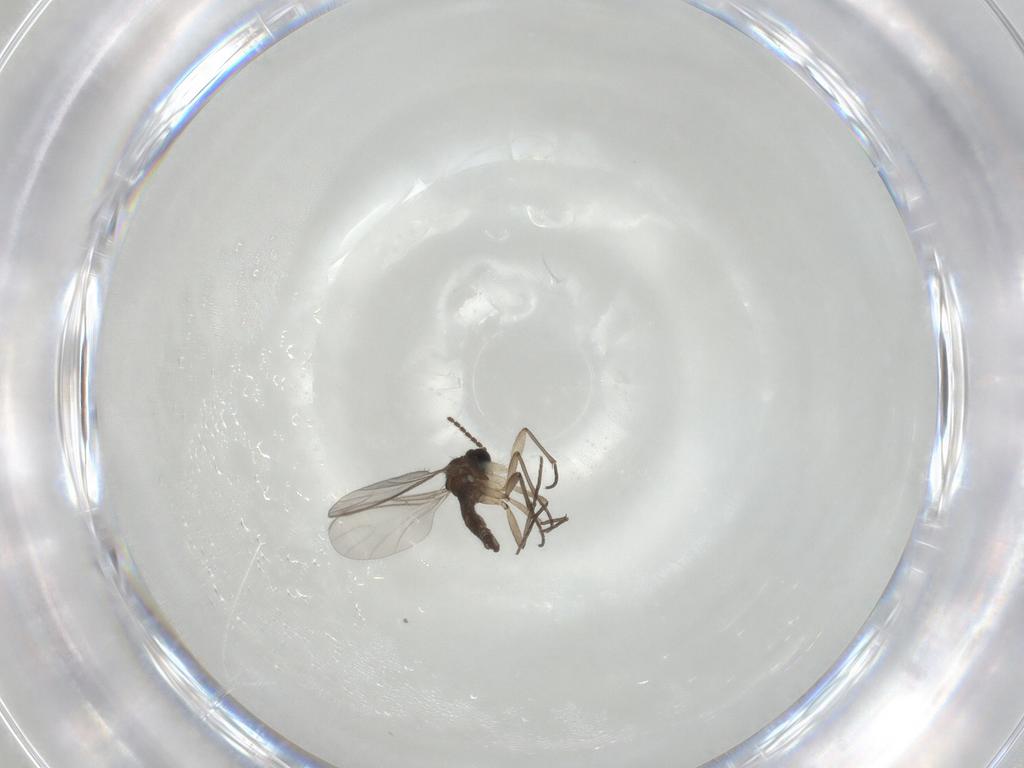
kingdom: Animalia
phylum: Arthropoda
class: Insecta
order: Diptera
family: Sciaridae
